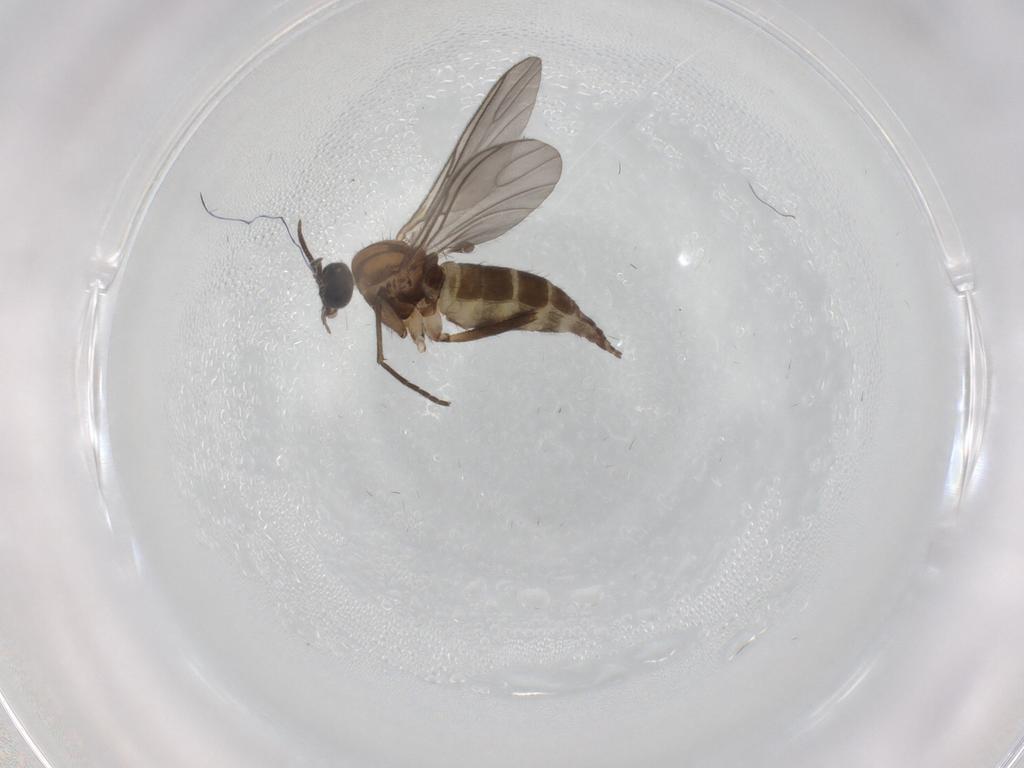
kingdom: Animalia
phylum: Arthropoda
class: Insecta
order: Diptera
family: Sciaridae
